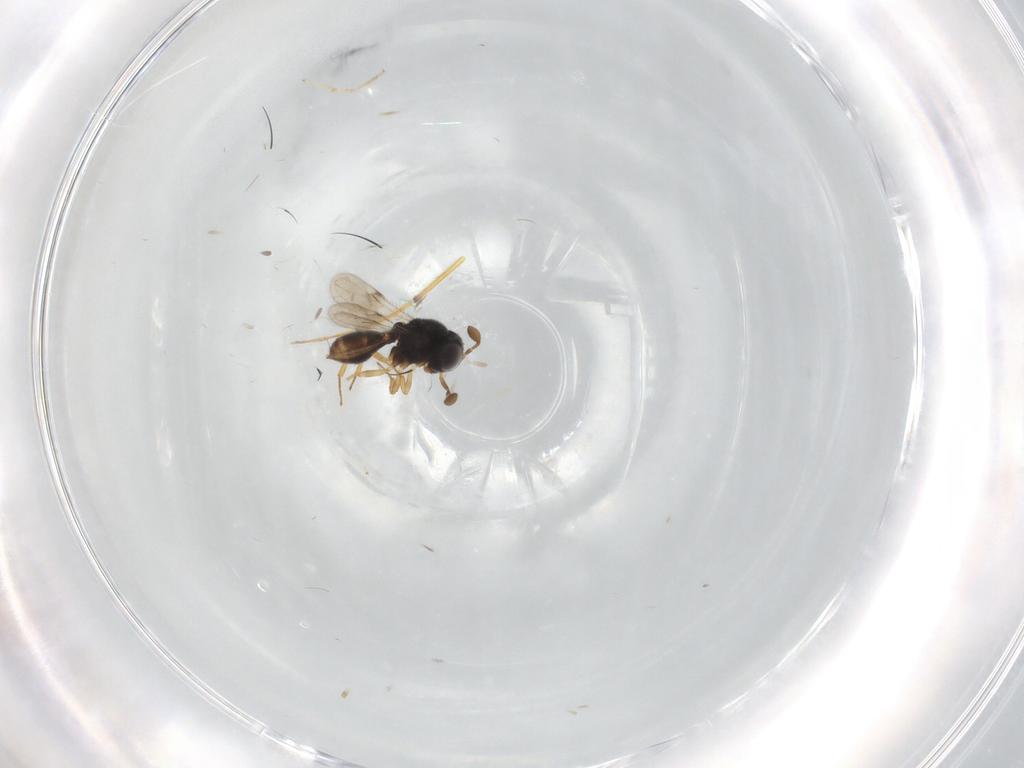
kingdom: Animalia
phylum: Arthropoda
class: Insecta
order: Hymenoptera
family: Scelionidae
